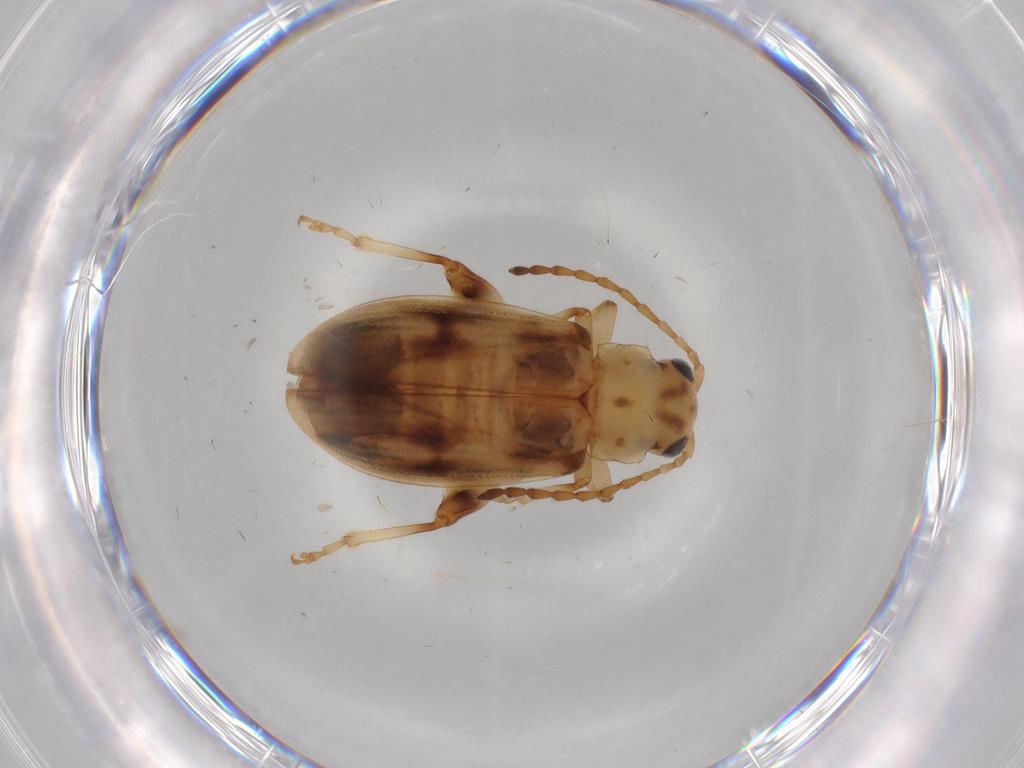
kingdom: Animalia
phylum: Arthropoda
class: Insecta
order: Coleoptera
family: Chrysomelidae
